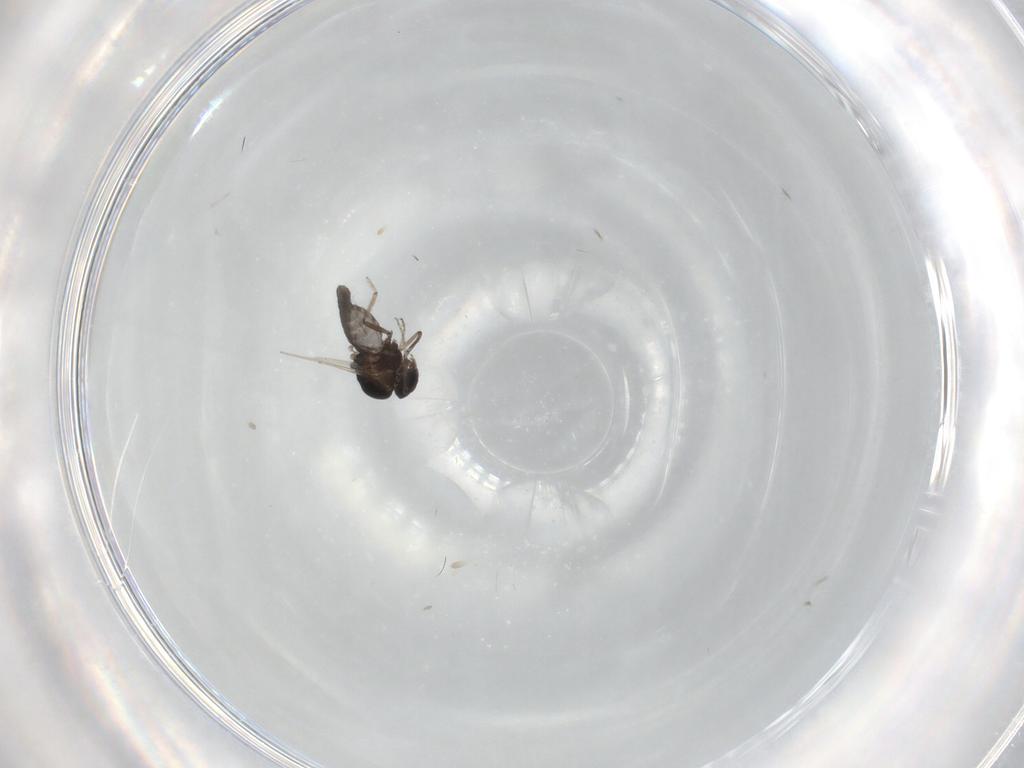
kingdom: Animalia
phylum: Arthropoda
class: Insecta
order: Diptera
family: Ceratopogonidae
